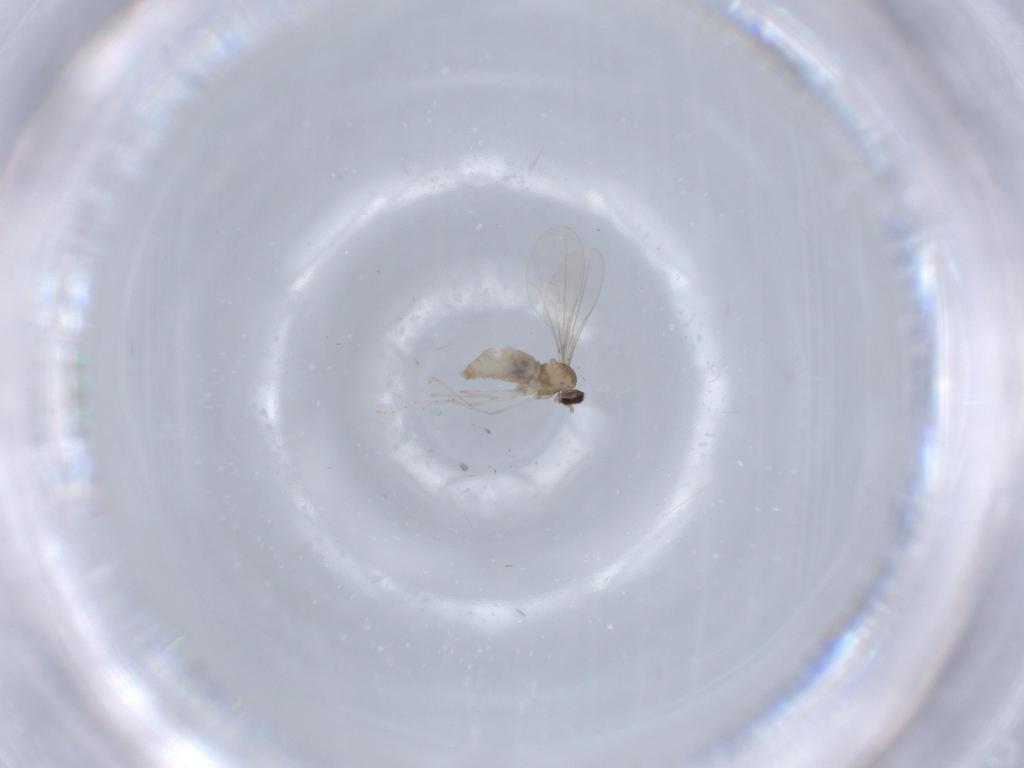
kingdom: Animalia
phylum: Arthropoda
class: Insecta
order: Diptera
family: Cecidomyiidae
